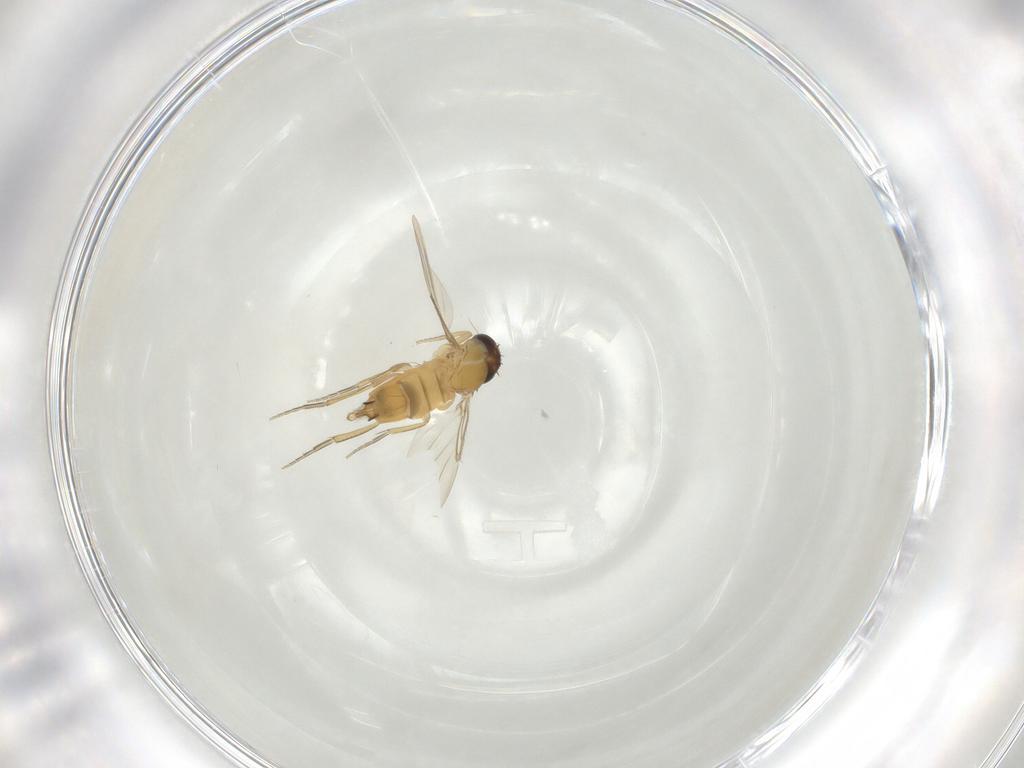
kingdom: Animalia
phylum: Arthropoda
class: Insecta
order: Diptera
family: Phoridae
